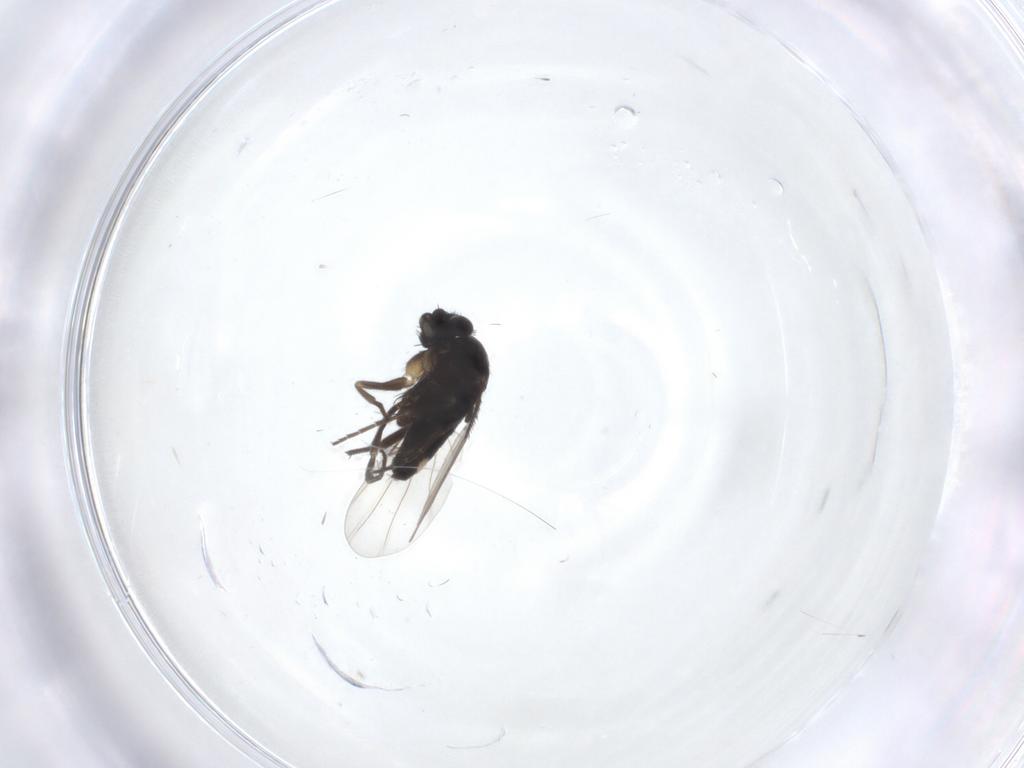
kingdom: Animalia
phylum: Arthropoda
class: Insecta
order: Diptera
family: Phoridae
